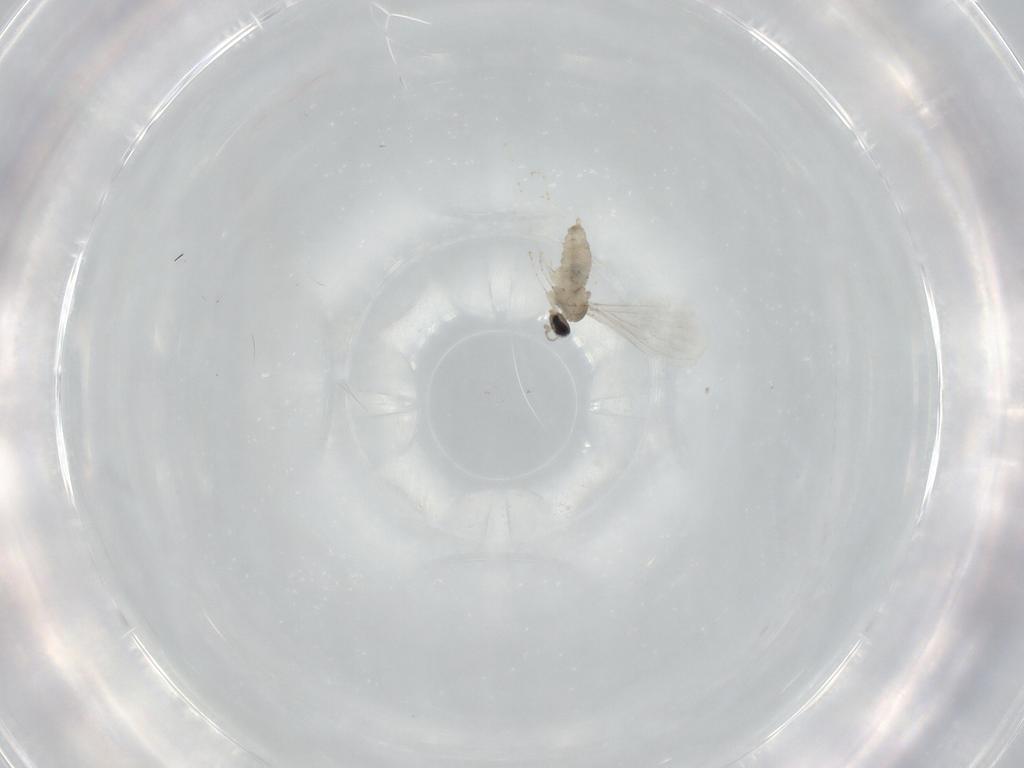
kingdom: Animalia
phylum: Arthropoda
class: Insecta
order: Diptera
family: Cecidomyiidae
